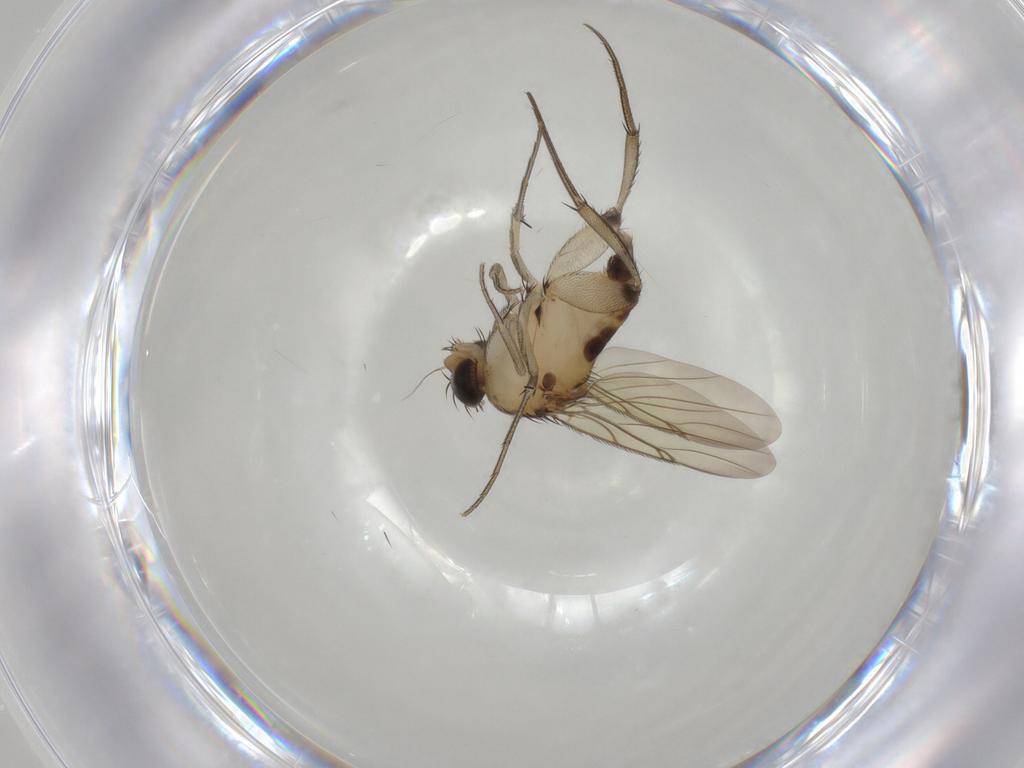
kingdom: Animalia
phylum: Arthropoda
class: Insecta
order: Diptera
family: Phoridae
